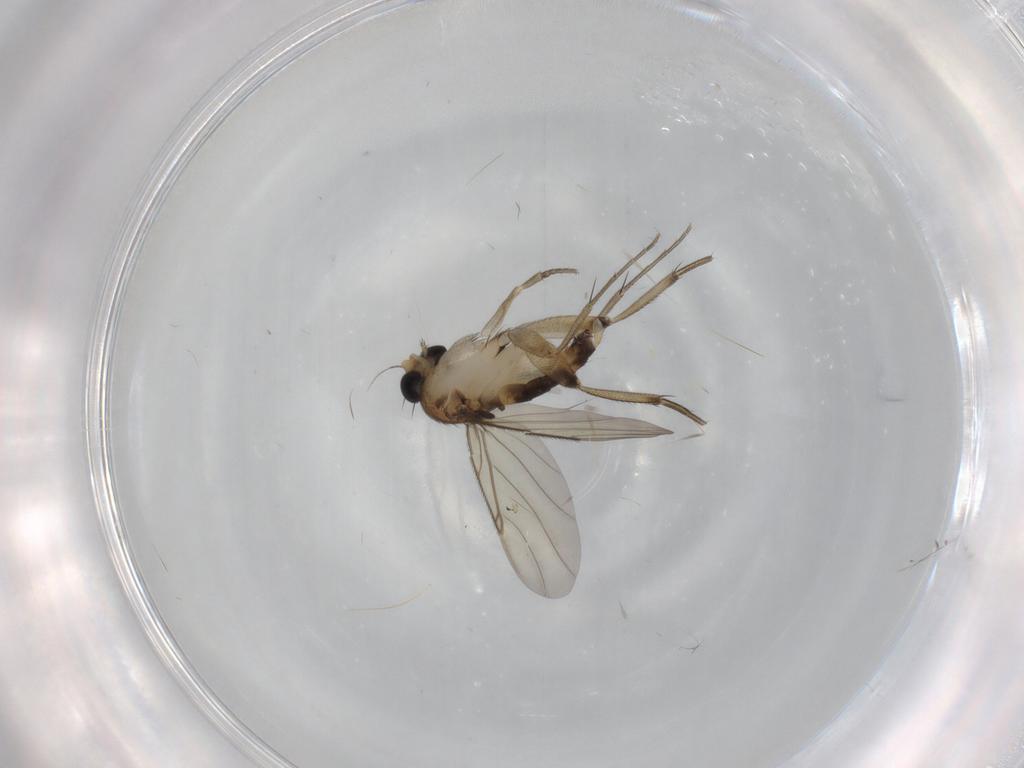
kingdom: Animalia
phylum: Arthropoda
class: Insecta
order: Diptera
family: Phoridae
